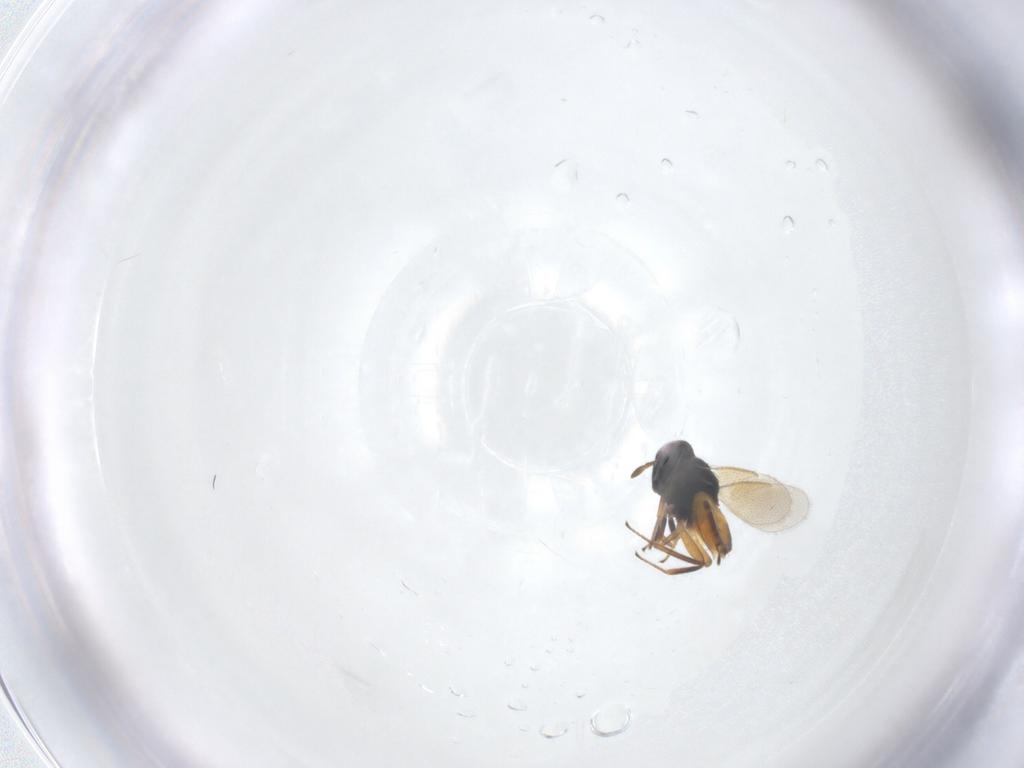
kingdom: Animalia
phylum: Arthropoda
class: Insecta
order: Hymenoptera
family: Aphelinidae
